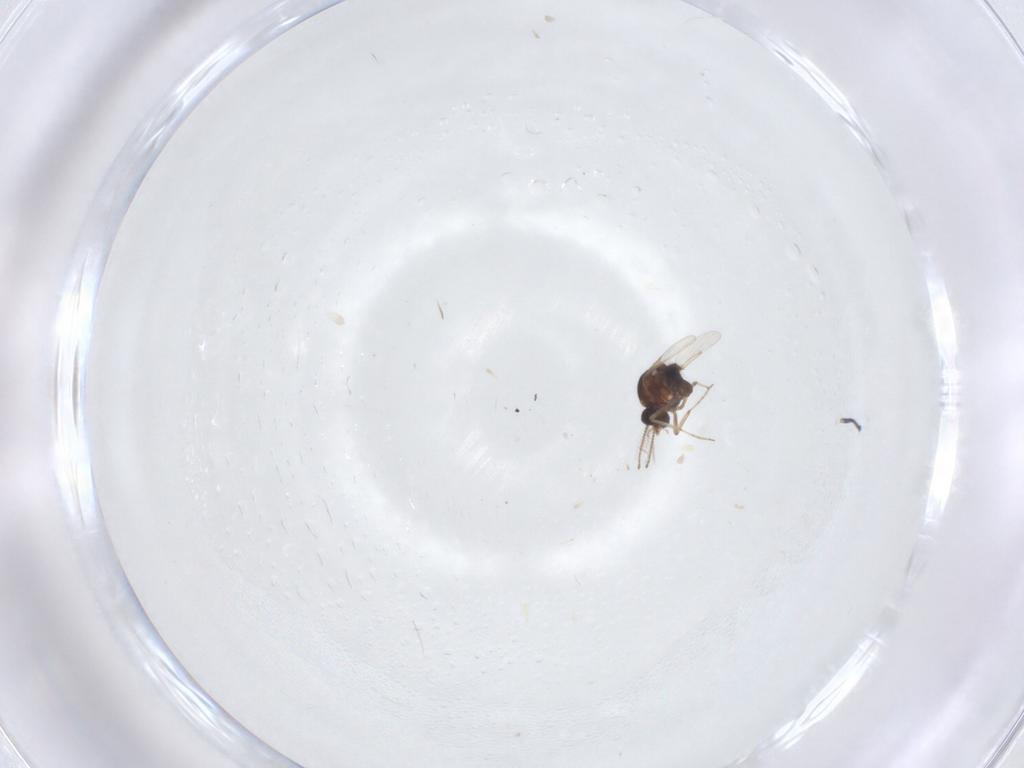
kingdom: Animalia
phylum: Arthropoda
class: Insecta
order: Diptera
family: Ceratopogonidae
